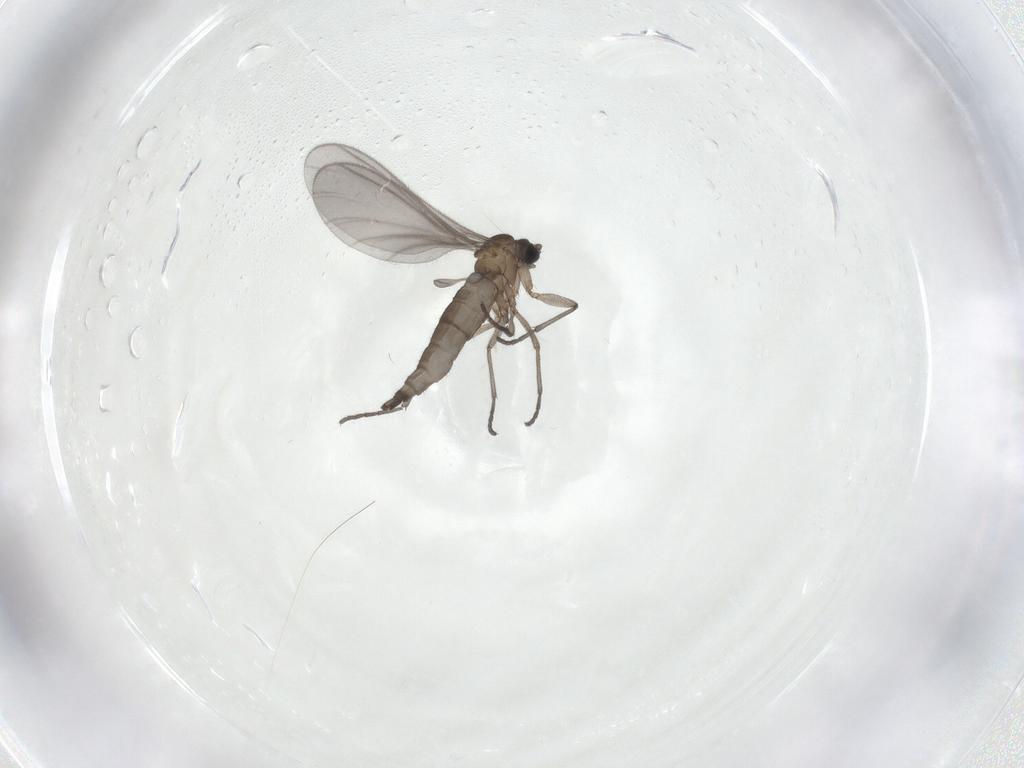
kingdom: Animalia
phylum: Arthropoda
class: Insecta
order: Diptera
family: Sciaridae
